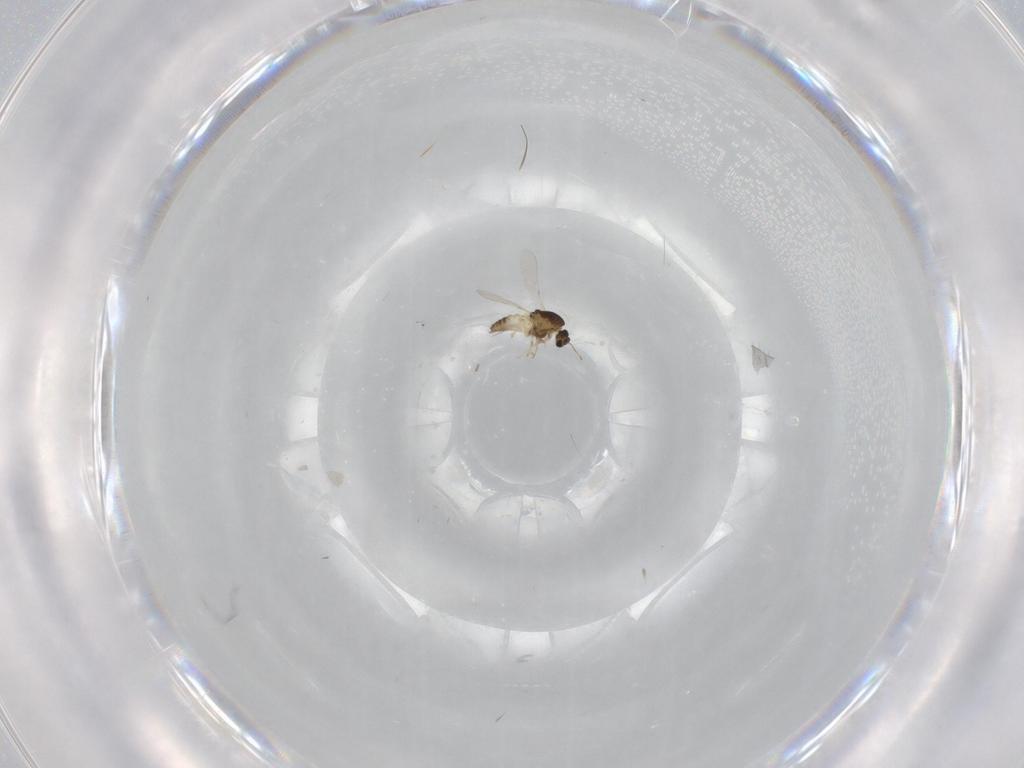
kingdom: Animalia
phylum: Arthropoda
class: Insecta
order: Diptera
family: Chironomidae
